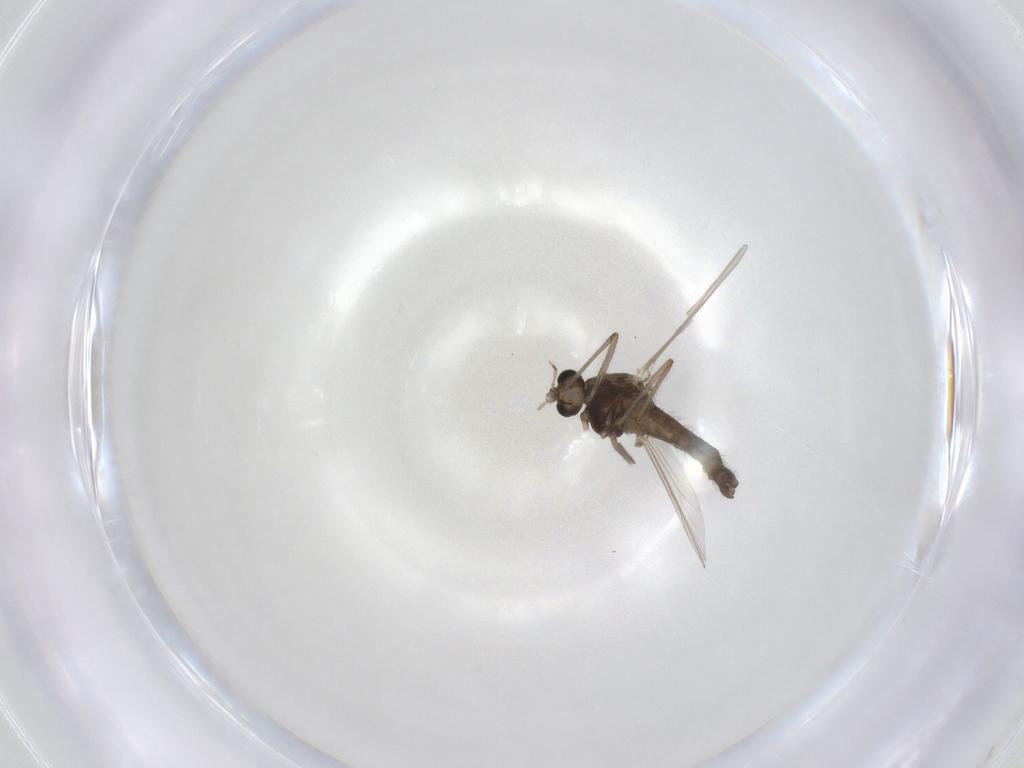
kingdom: Animalia
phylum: Arthropoda
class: Insecta
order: Diptera
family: Chironomidae
